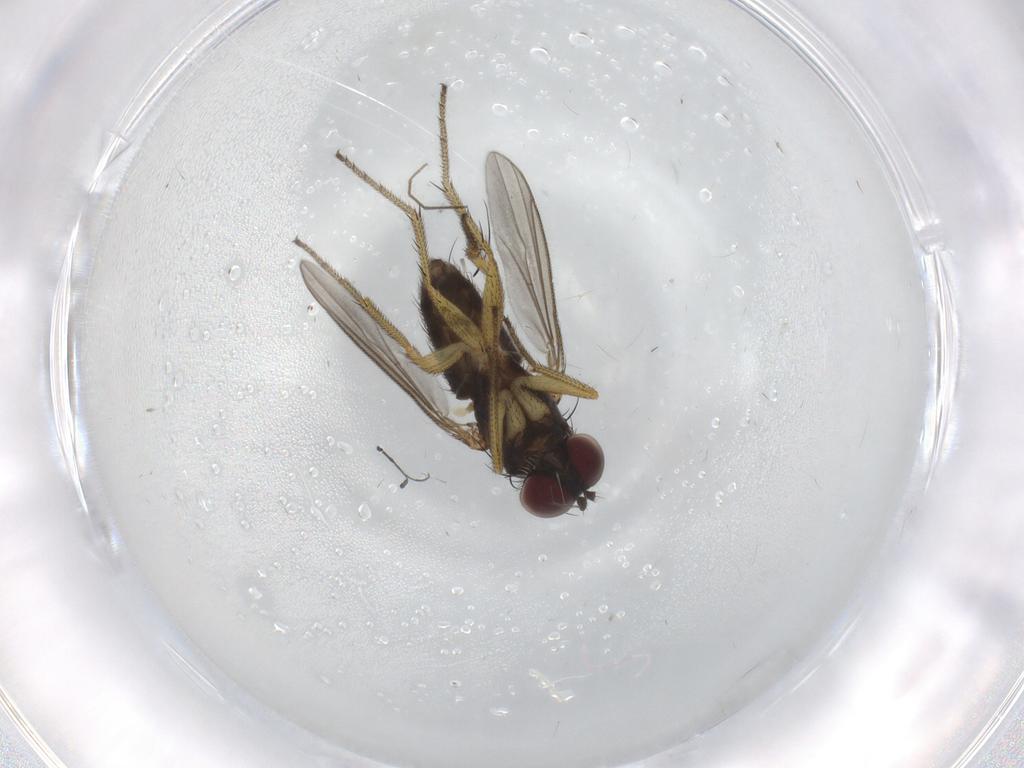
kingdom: Animalia
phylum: Arthropoda
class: Insecta
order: Diptera
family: Dolichopodidae
